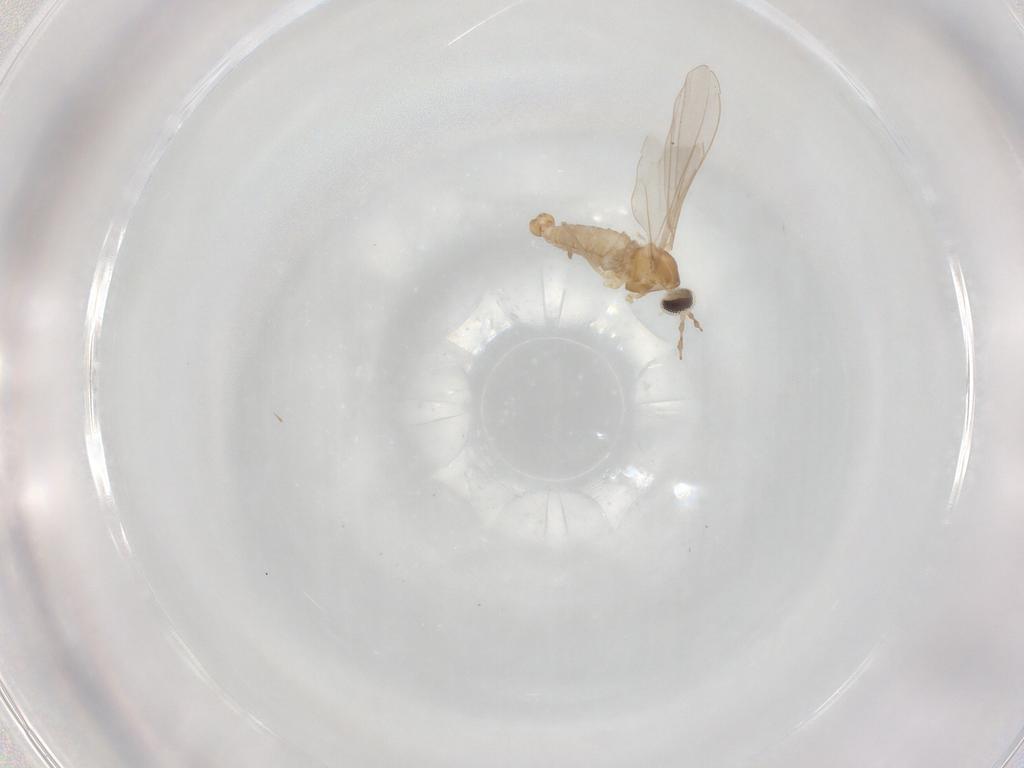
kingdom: Animalia
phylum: Arthropoda
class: Insecta
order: Diptera
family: Cecidomyiidae
